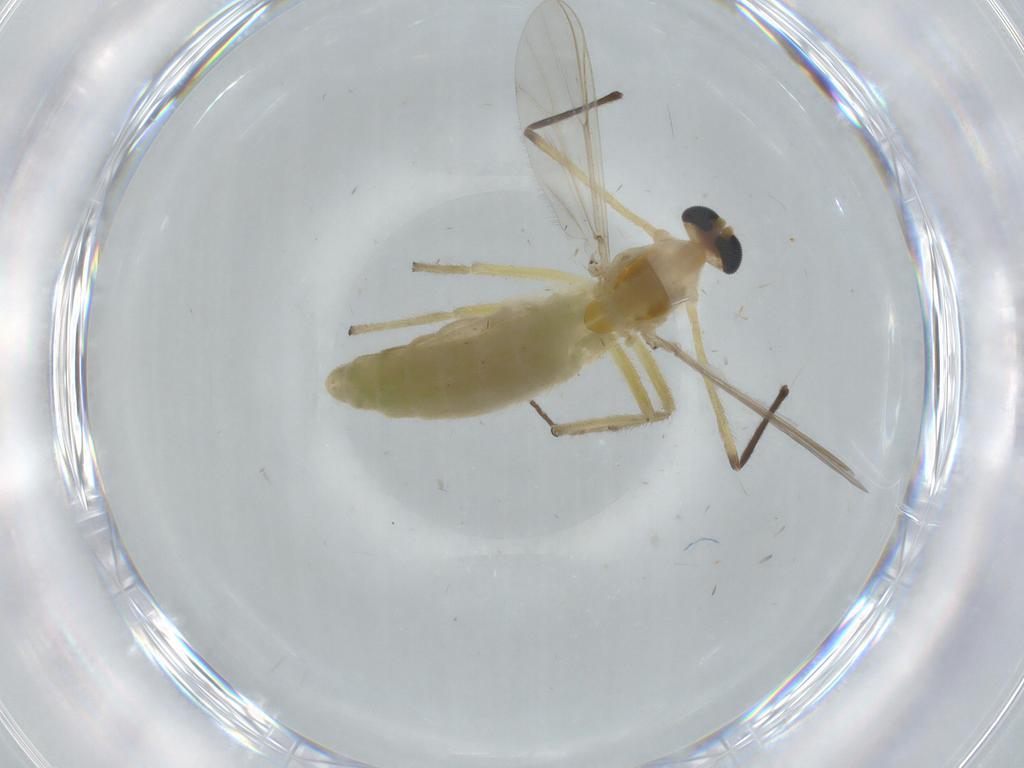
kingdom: Animalia
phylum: Arthropoda
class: Insecta
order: Diptera
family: Chironomidae
